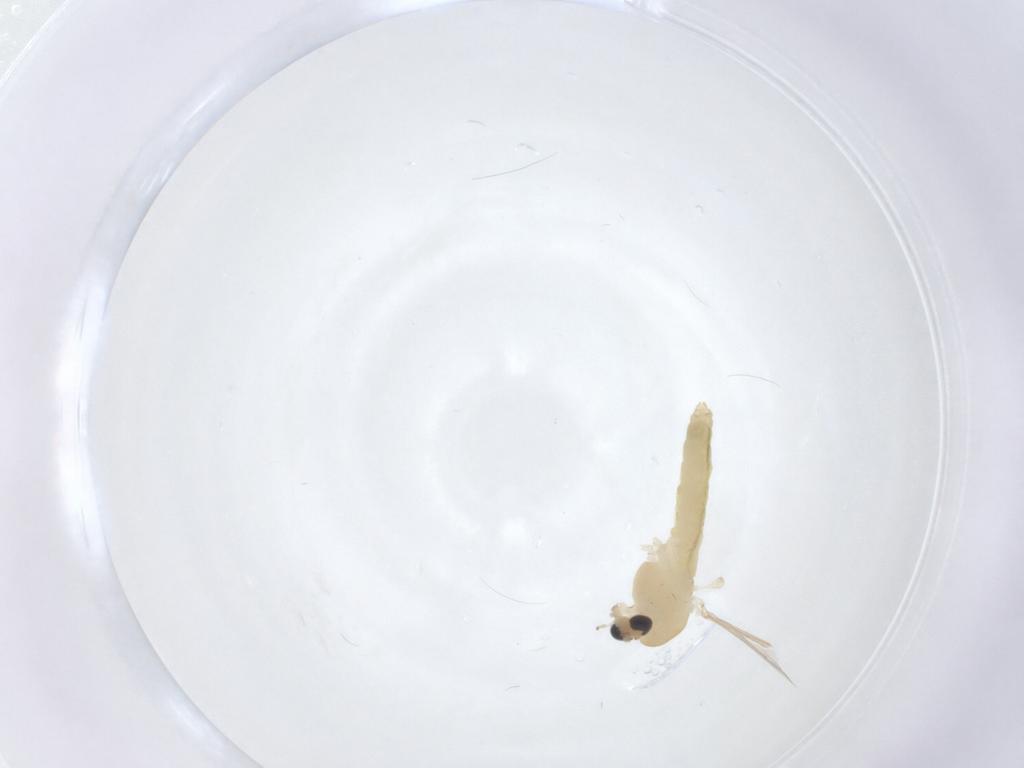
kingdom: Animalia
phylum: Arthropoda
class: Insecta
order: Diptera
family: Chironomidae
